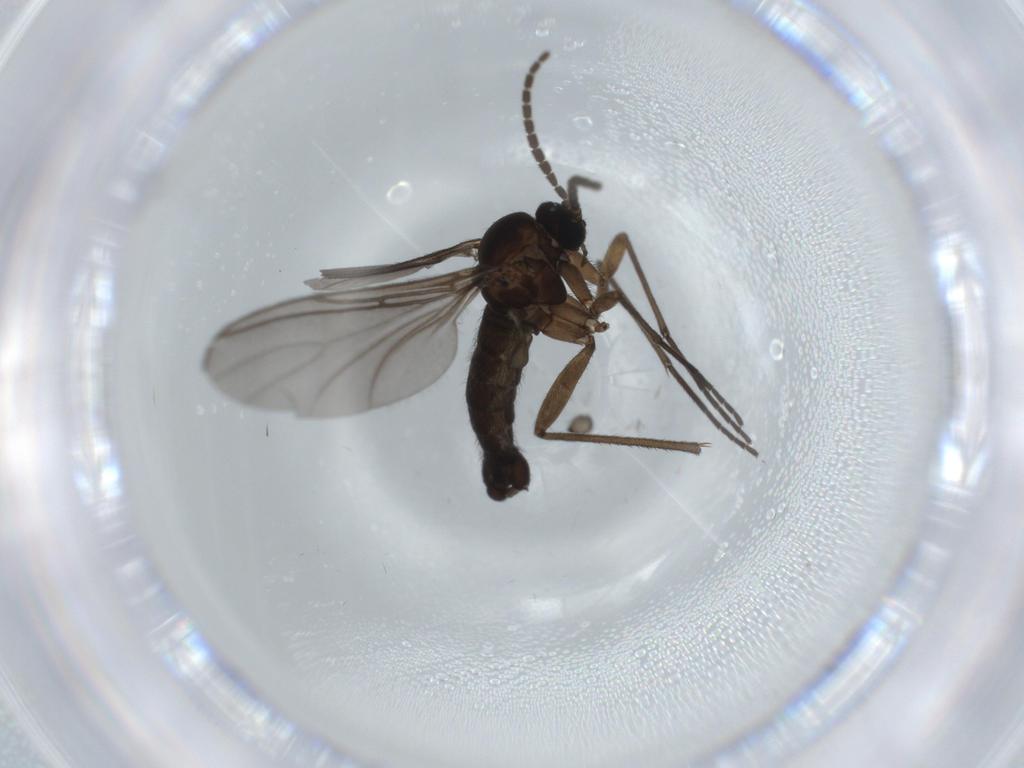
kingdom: Animalia
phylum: Arthropoda
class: Insecta
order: Diptera
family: Sciaridae
